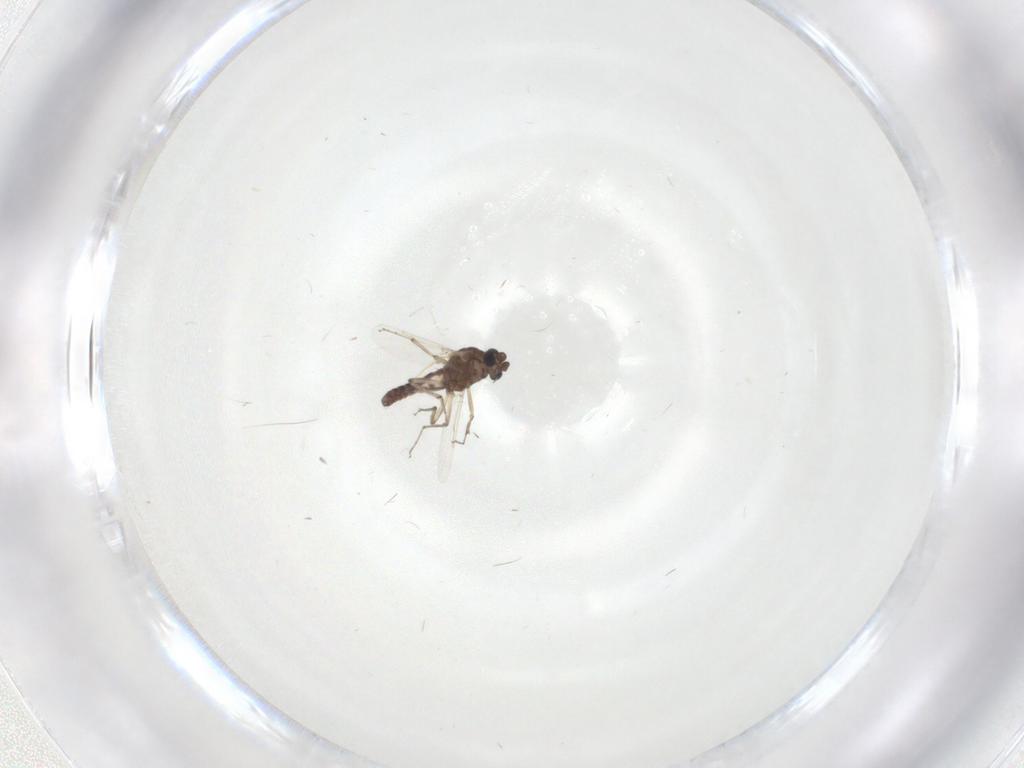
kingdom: Animalia
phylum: Arthropoda
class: Insecta
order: Diptera
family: Ceratopogonidae
